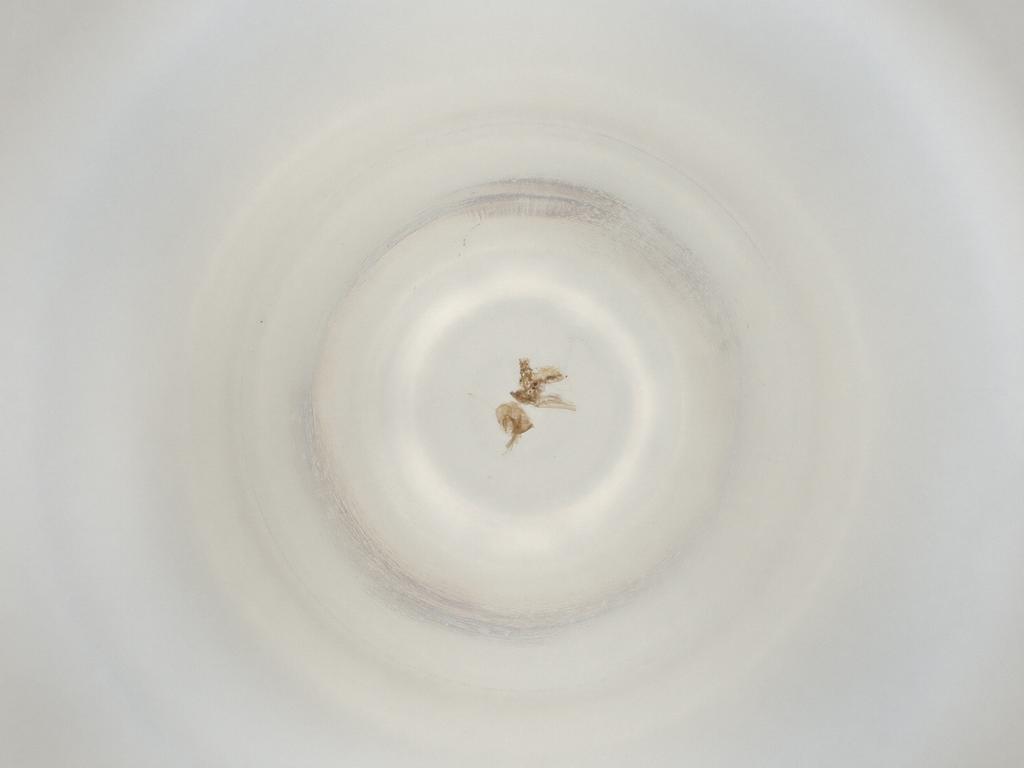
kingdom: Animalia
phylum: Arthropoda
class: Insecta
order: Diptera
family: Cecidomyiidae
